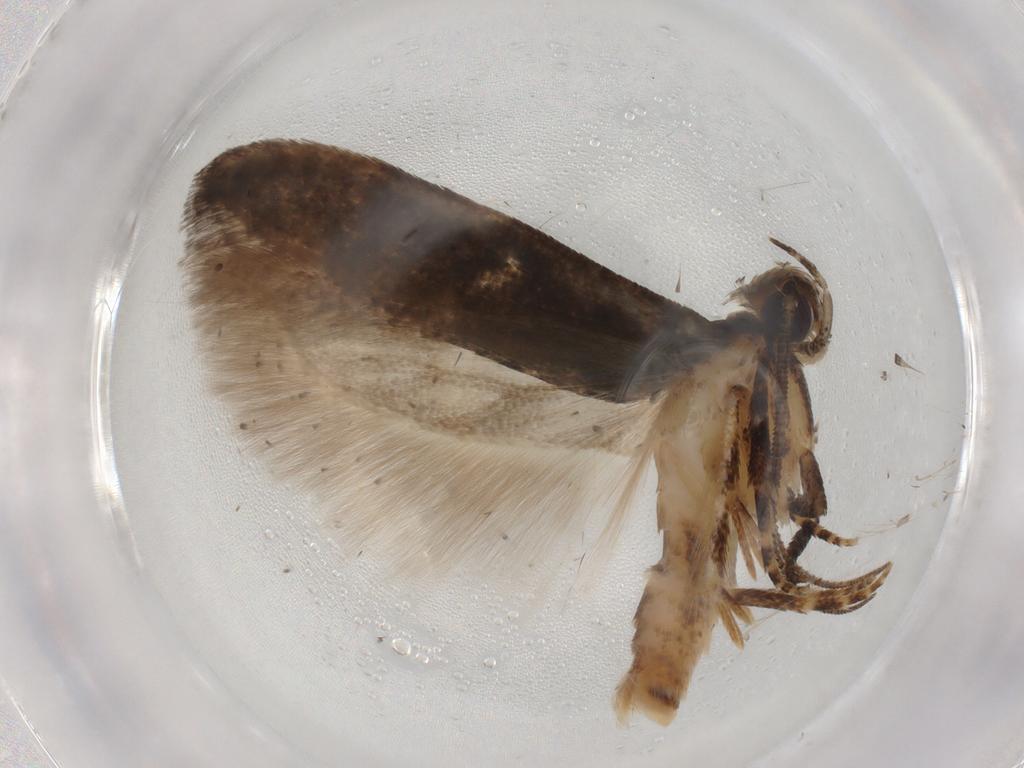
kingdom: Animalia
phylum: Arthropoda
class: Insecta
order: Lepidoptera
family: Gelechiidae
